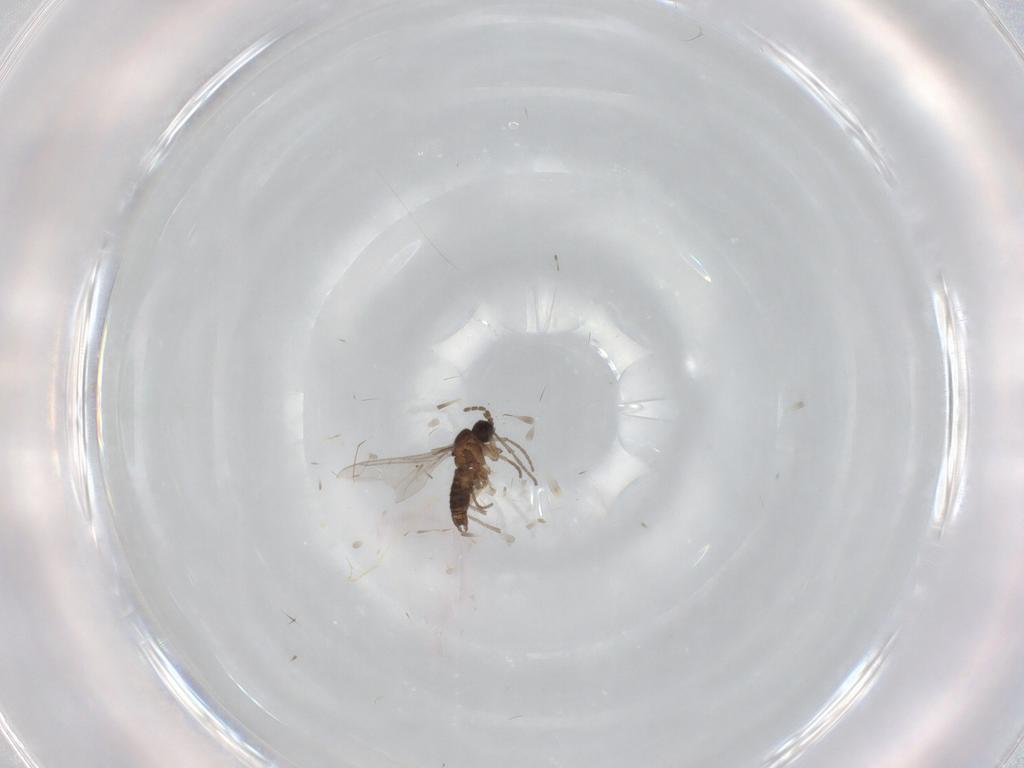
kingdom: Animalia
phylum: Arthropoda
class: Insecta
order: Diptera
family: Sciaridae
